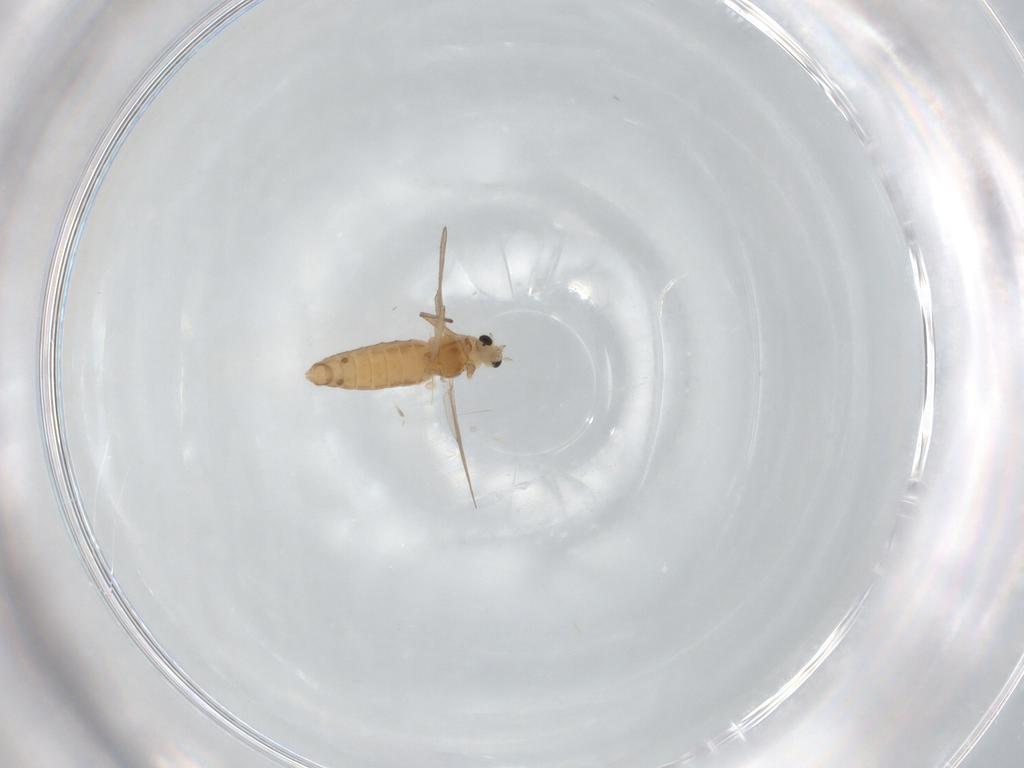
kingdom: Animalia
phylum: Arthropoda
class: Insecta
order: Diptera
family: Chironomidae
